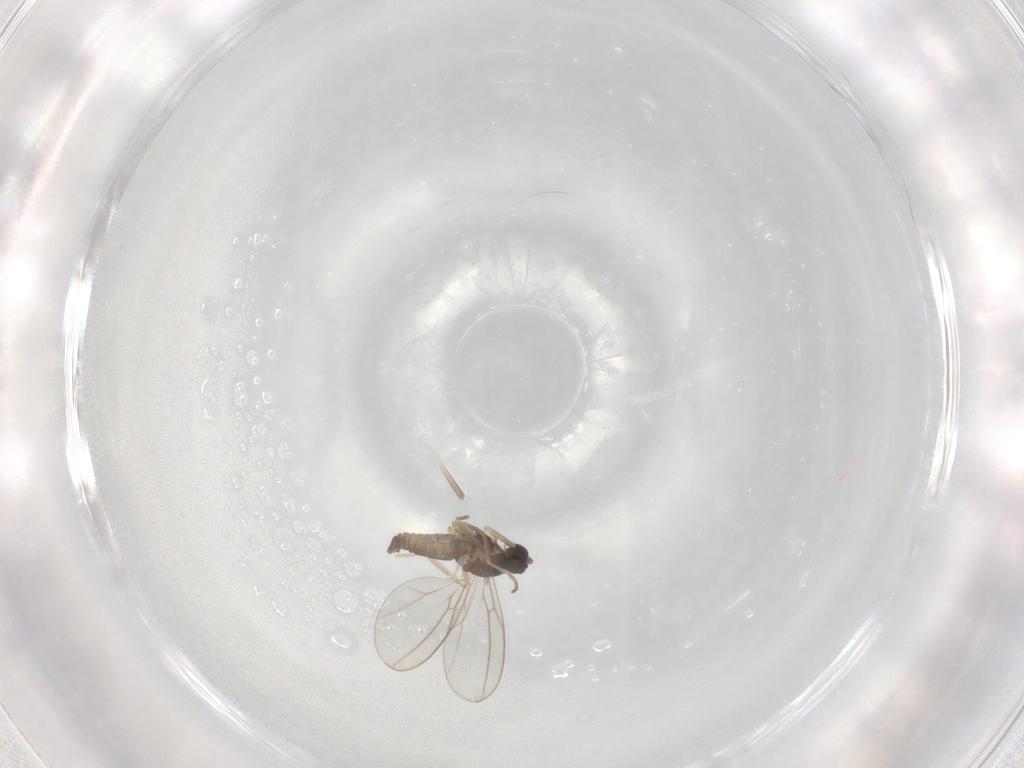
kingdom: Animalia
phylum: Arthropoda
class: Insecta
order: Diptera
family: Cecidomyiidae
